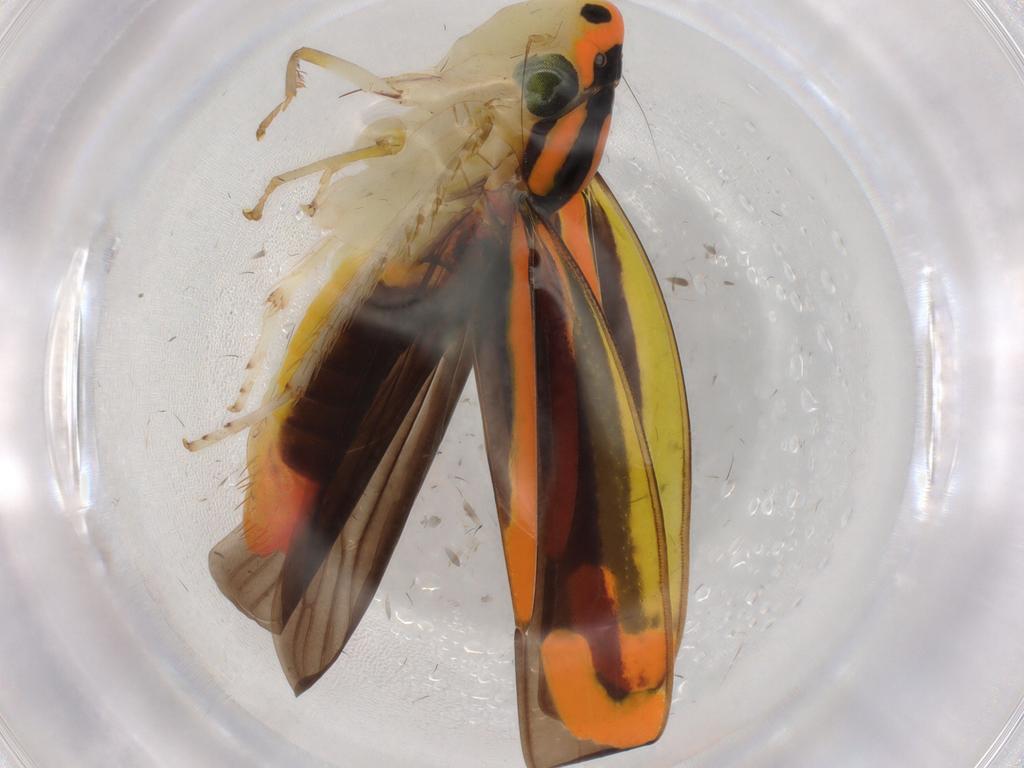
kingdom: Animalia
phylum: Arthropoda
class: Insecta
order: Hemiptera
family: Cicadellidae
